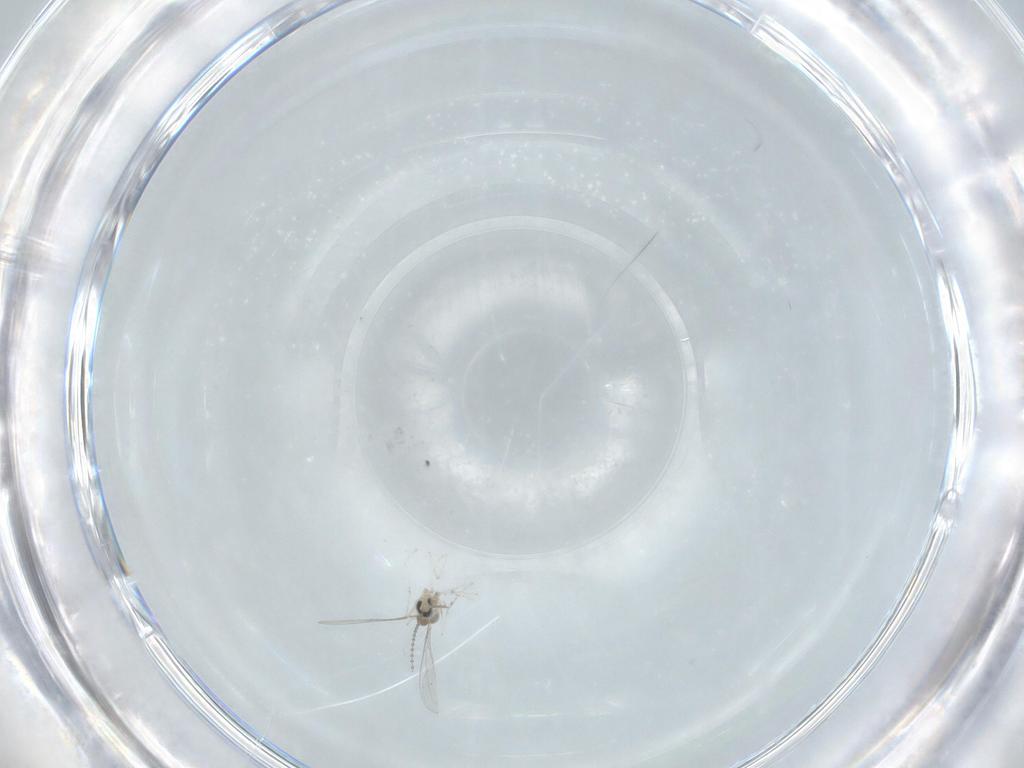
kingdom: Animalia
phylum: Arthropoda
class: Insecta
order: Diptera
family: Cecidomyiidae
